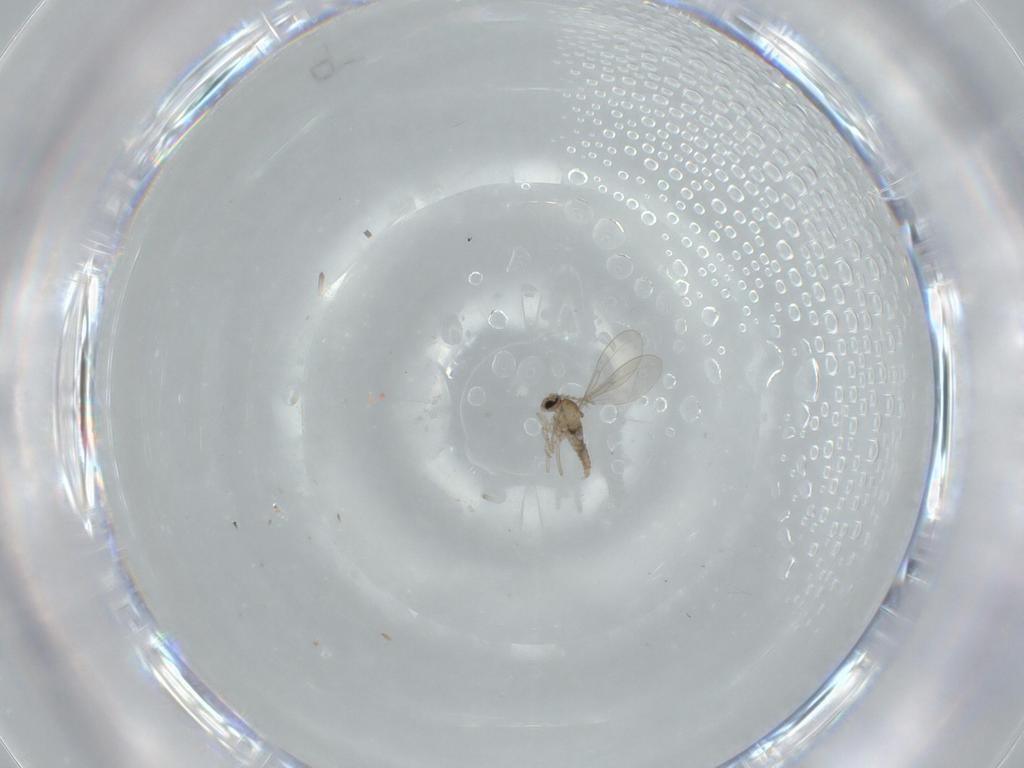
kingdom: Animalia
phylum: Arthropoda
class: Insecta
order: Diptera
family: Cecidomyiidae
